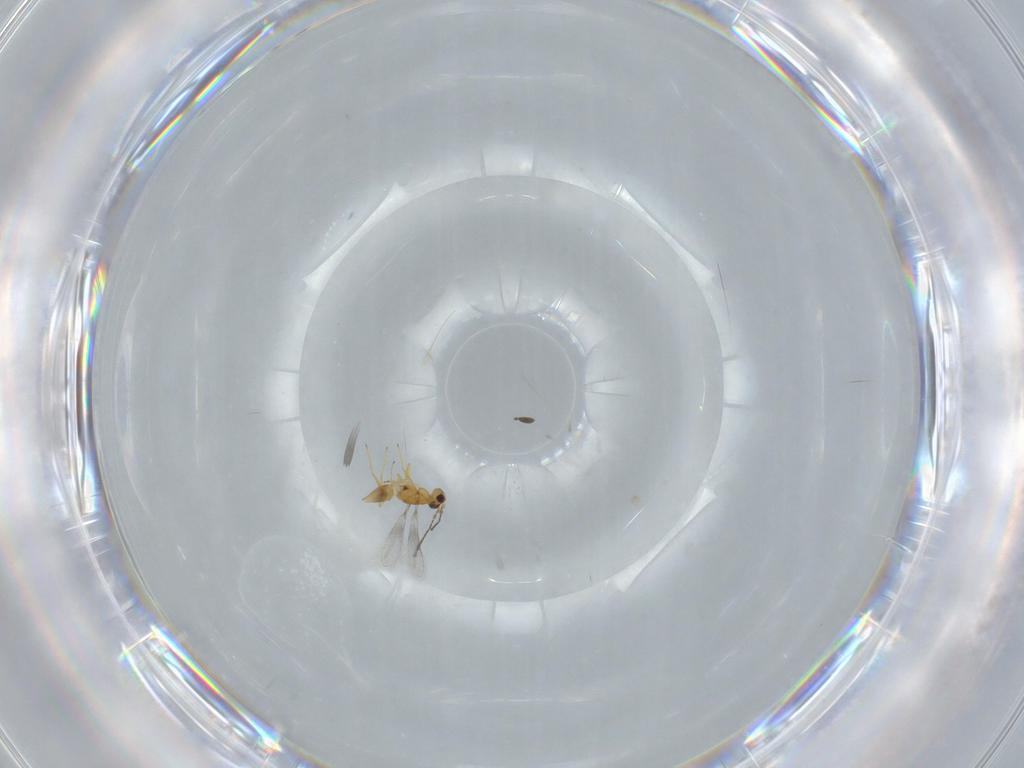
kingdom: Animalia
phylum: Arthropoda
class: Insecta
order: Hymenoptera
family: Mymaridae
